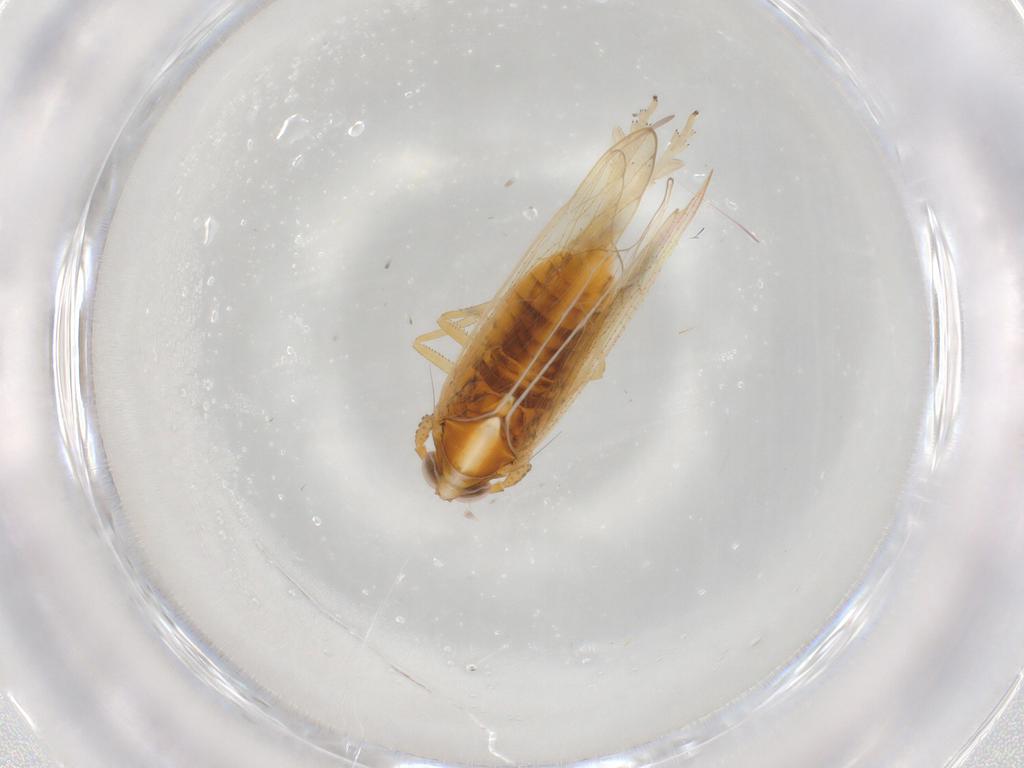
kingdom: Animalia
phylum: Arthropoda
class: Insecta
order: Hemiptera
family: Delphacidae
